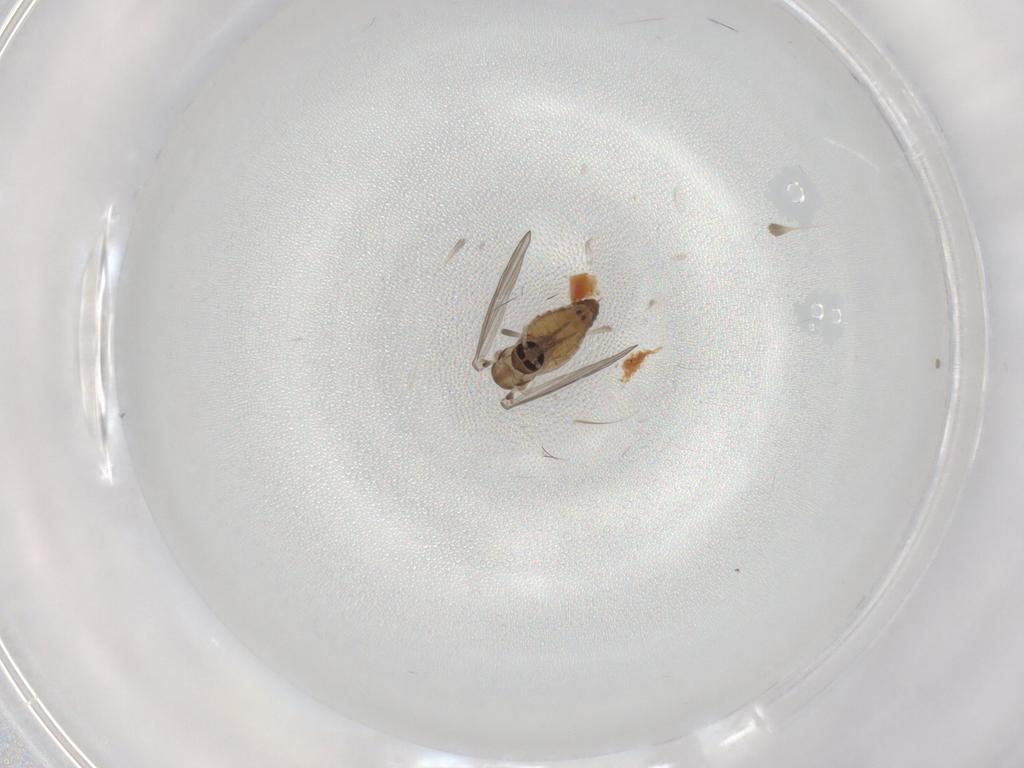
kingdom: Animalia
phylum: Arthropoda
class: Insecta
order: Diptera
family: Psychodidae
